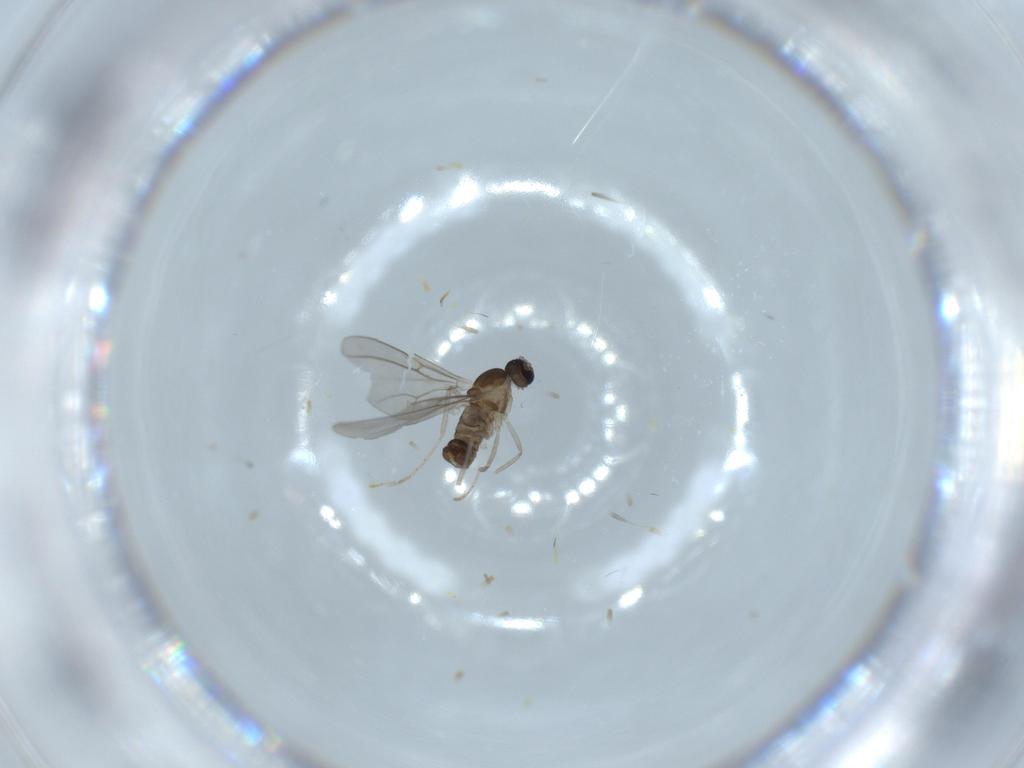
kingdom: Animalia
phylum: Arthropoda
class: Insecta
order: Diptera
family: Cecidomyiidae
